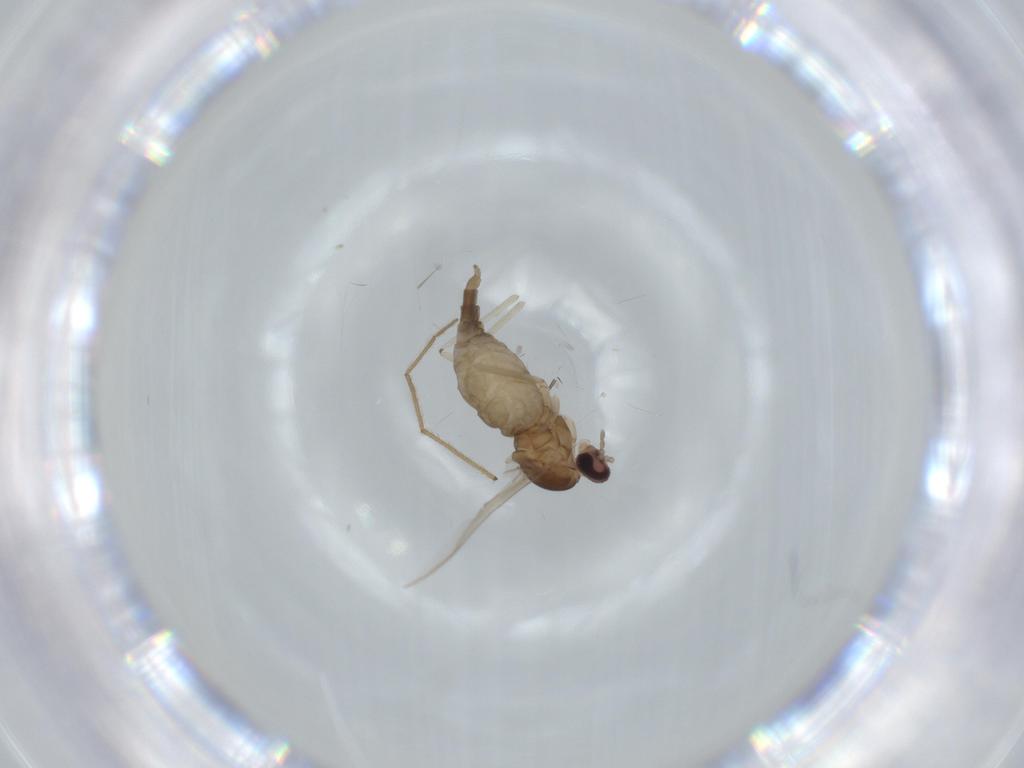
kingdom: Animalia
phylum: Arthropoda
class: Insecta
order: Diptera
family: Cecidomyiidae
